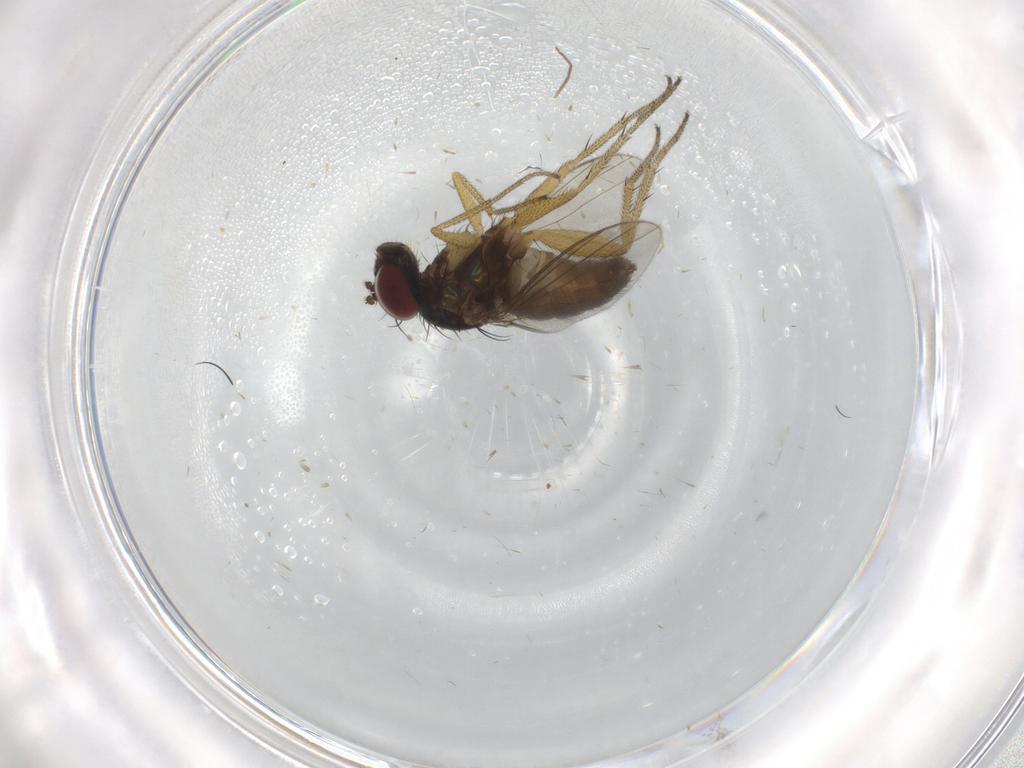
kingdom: Animalia
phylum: Arthropoda
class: Insecta
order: Diptera
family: Dolichopodidae
